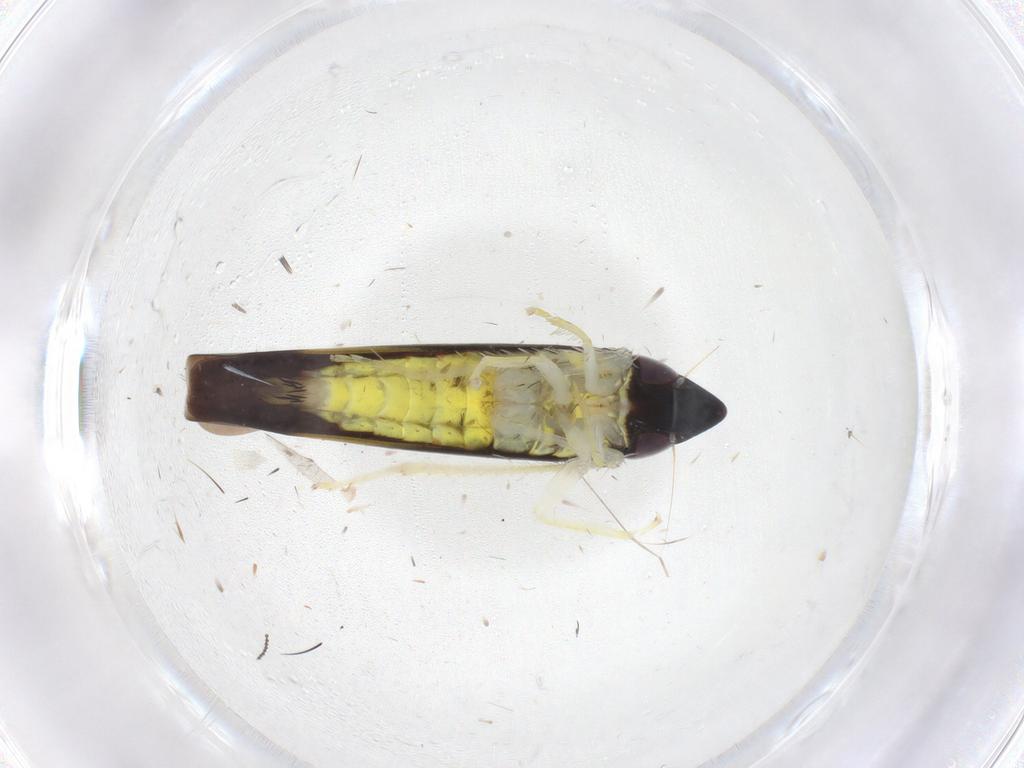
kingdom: Animalia
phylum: Arthropoda
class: Insecta
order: Hemiptera
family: Cicadellidae
